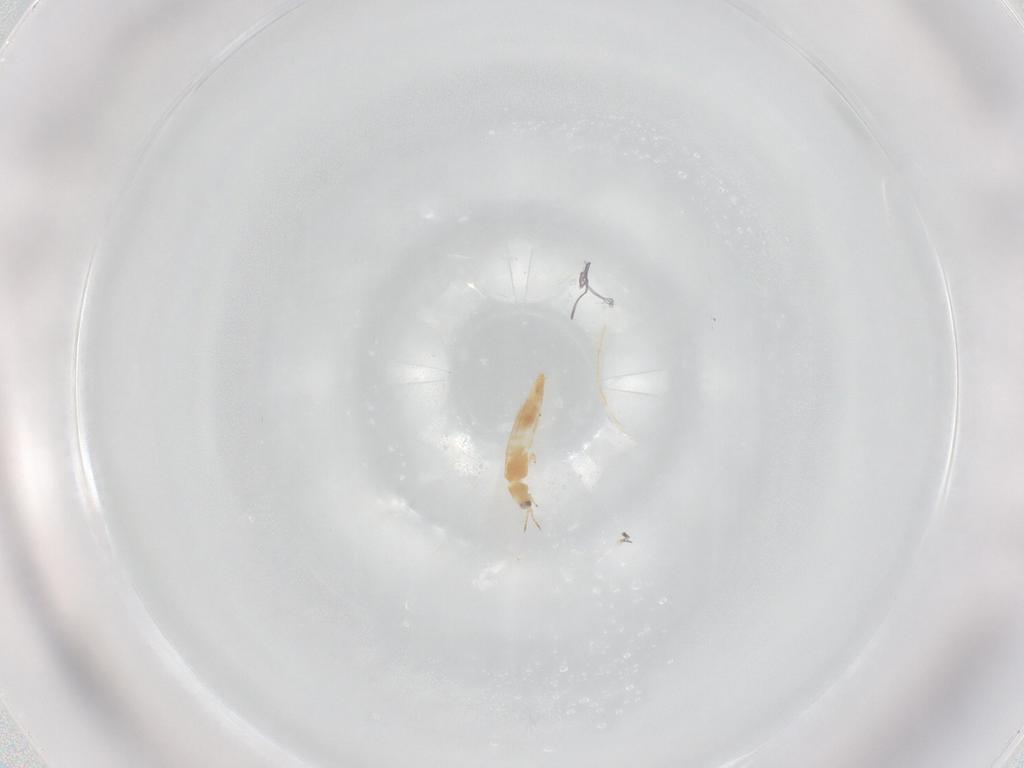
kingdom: Animalia
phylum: Arthropoda
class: Insecta
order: Thysanoptera
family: Thripidae
